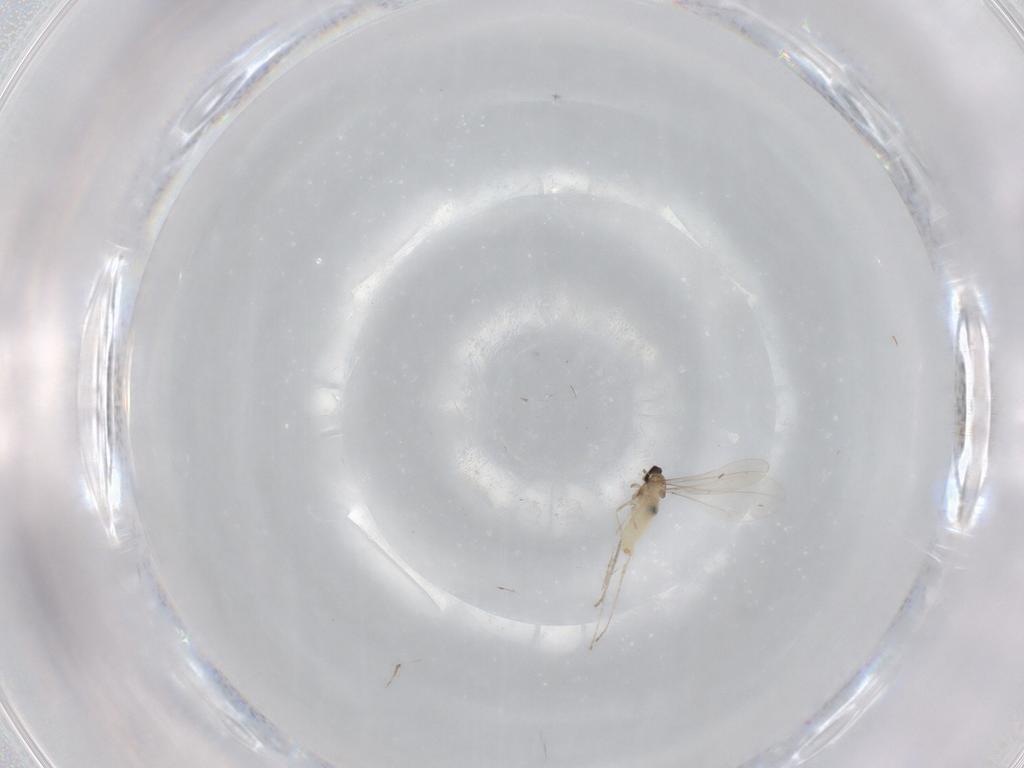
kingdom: Animalia
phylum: Arthropoda
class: Insecta
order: Diptera
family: Cecidomyiidae
